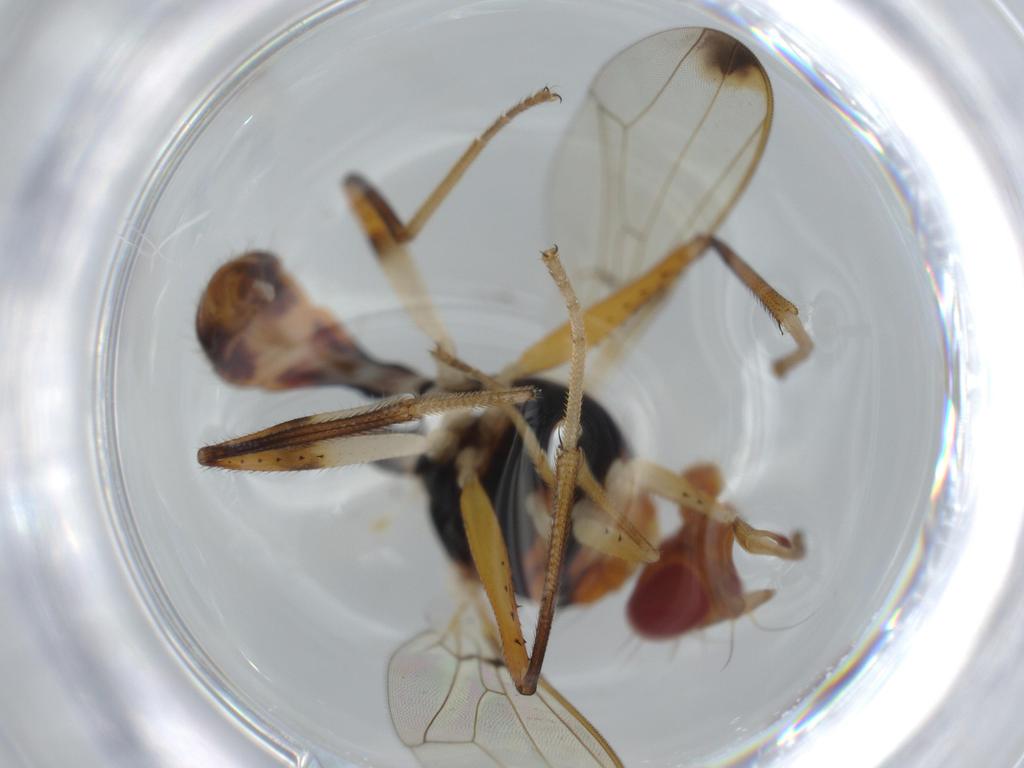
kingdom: Animalia
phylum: Arthropoda
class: Insecta
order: Diptera
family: Richardiidae
